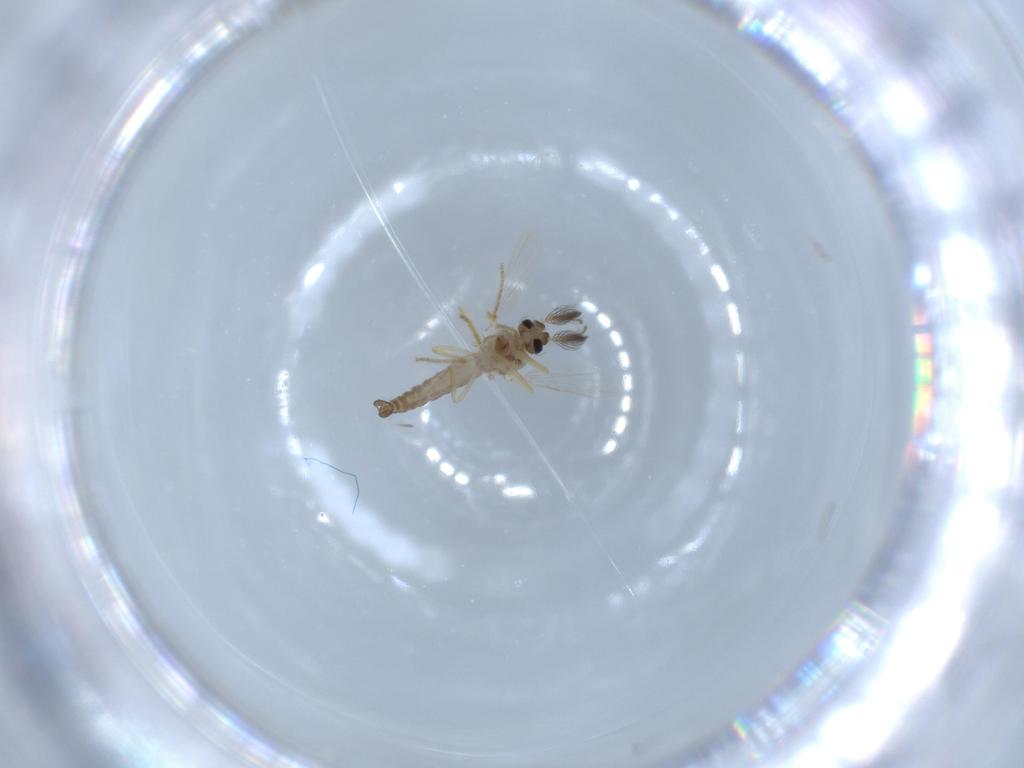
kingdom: Animalia
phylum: Arthropoda
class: Insecta
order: Diptera
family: Ceratopogonidae
